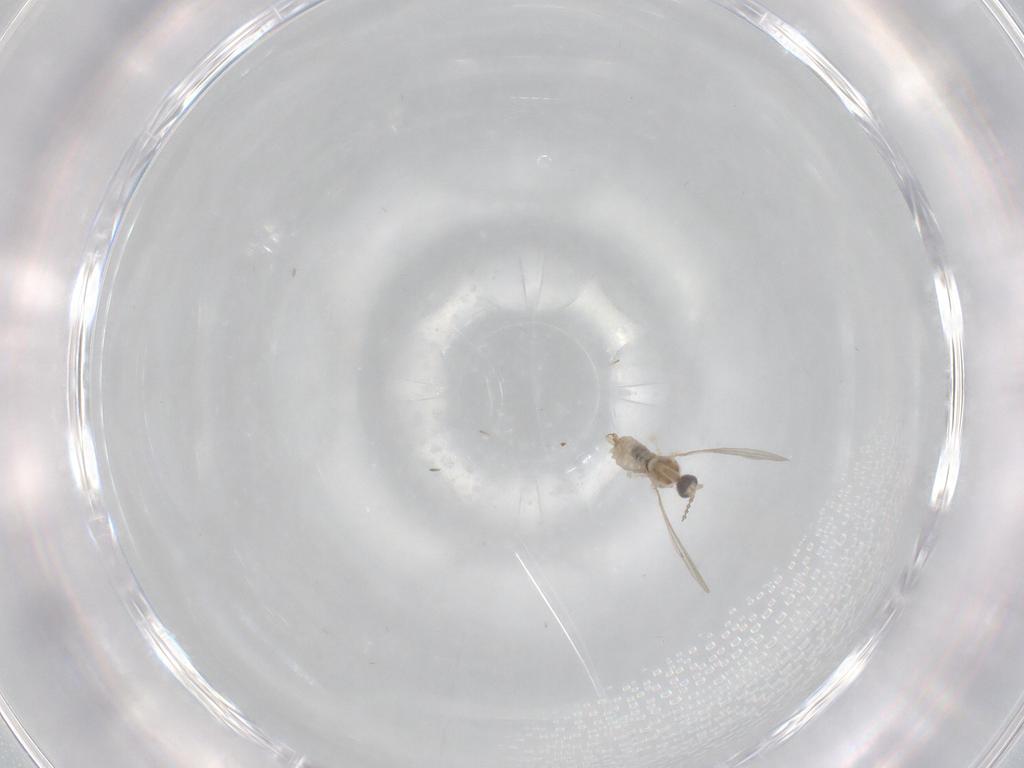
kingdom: Animalia
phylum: Arthropoda
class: Insecta
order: Diptera
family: Cecidomyiidae
